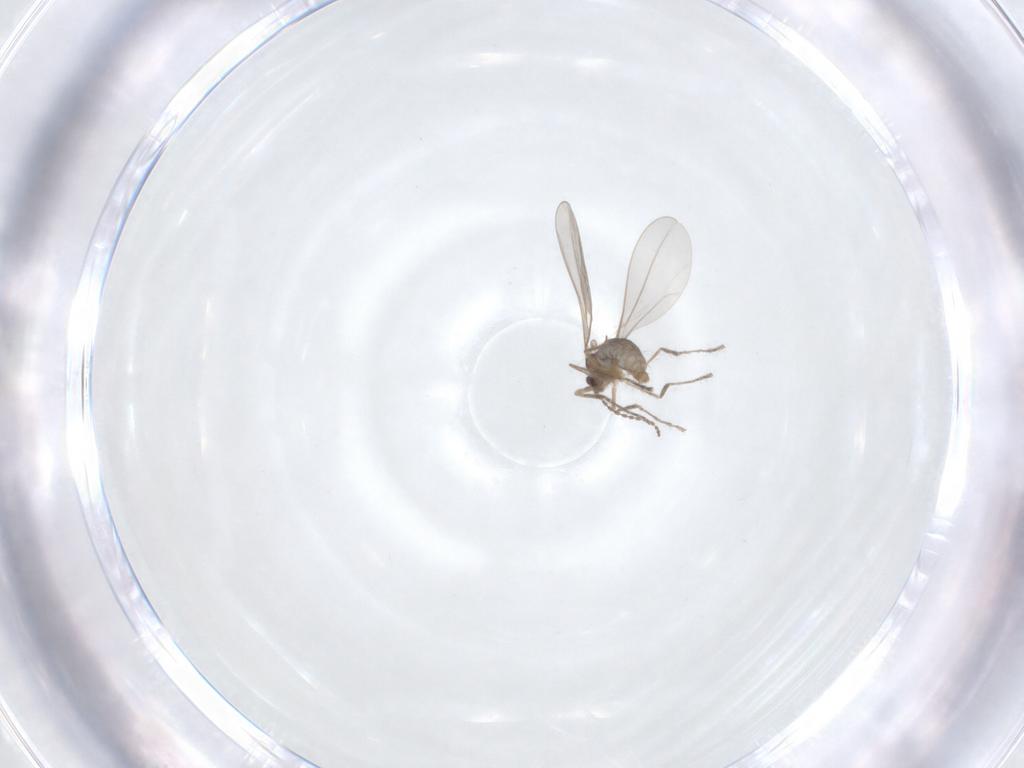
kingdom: Animalia
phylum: Arthropoda
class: Insecta
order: Diptera
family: Cecidomyiidae
